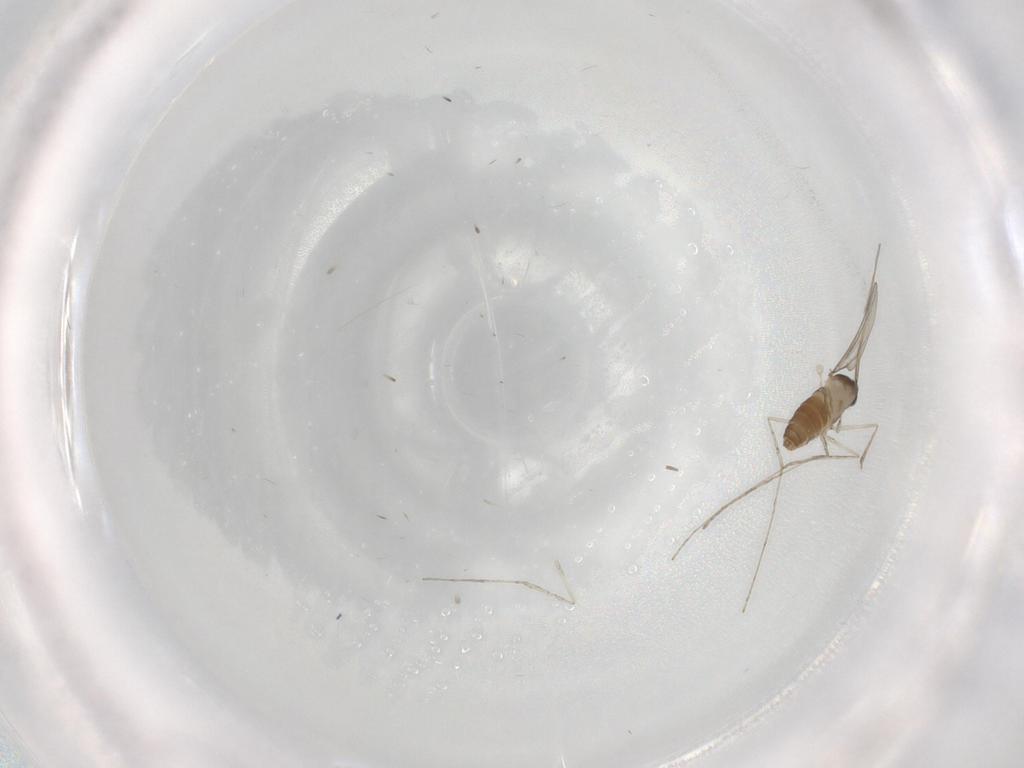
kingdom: Animalia
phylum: Arthropoda
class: Insecta
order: Diptera
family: Cecidomyiidae
